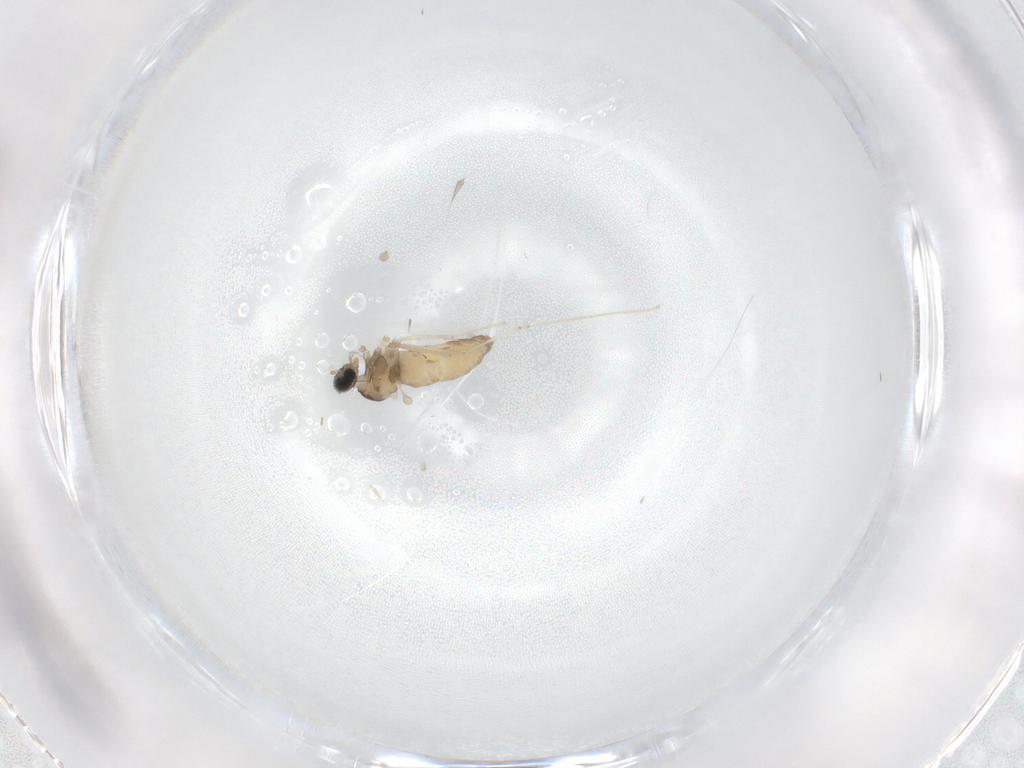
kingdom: Animalia
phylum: Arthropoda
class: Insecta
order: Diptera
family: Cecidomyiidae
